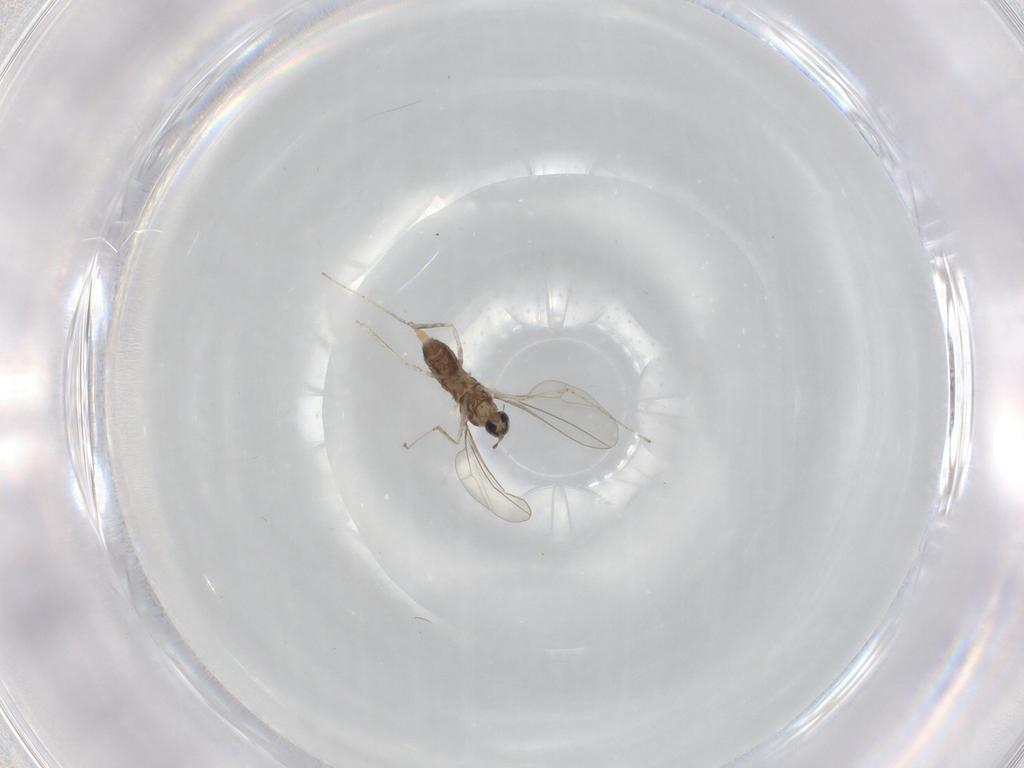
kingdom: Animalia
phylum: Arthropoda
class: Insecta
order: Diptera
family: Cecidomyiidae
